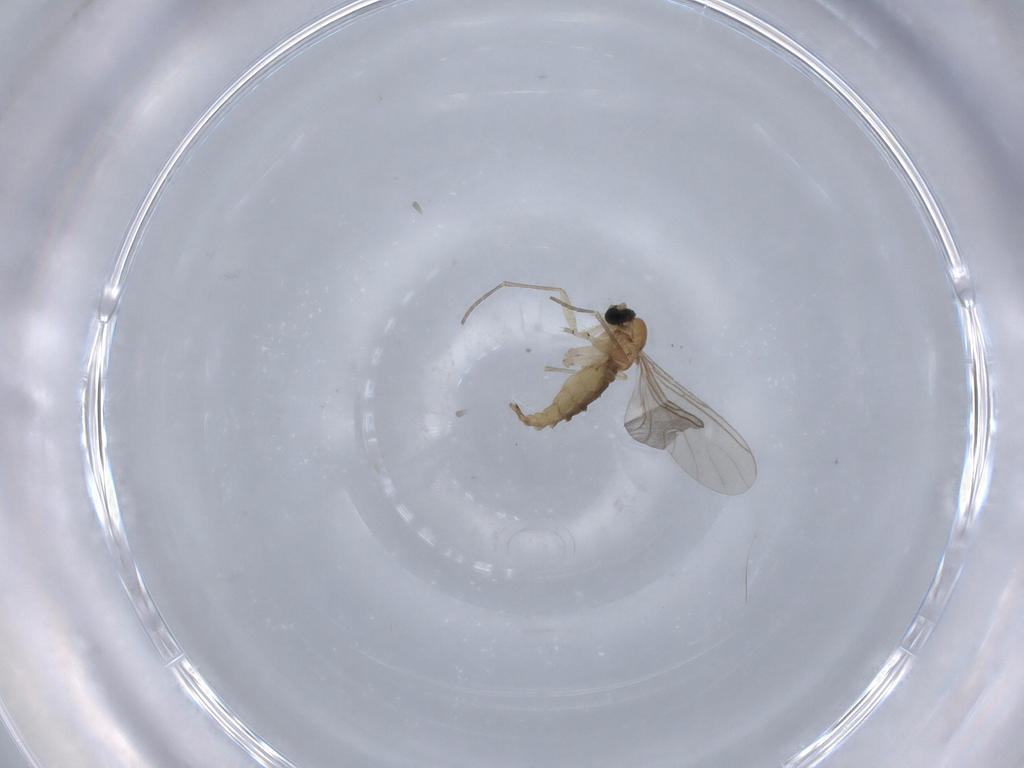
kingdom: Animalia
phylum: Arthropoda
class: Insecta
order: Diptera
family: Sciaridae
